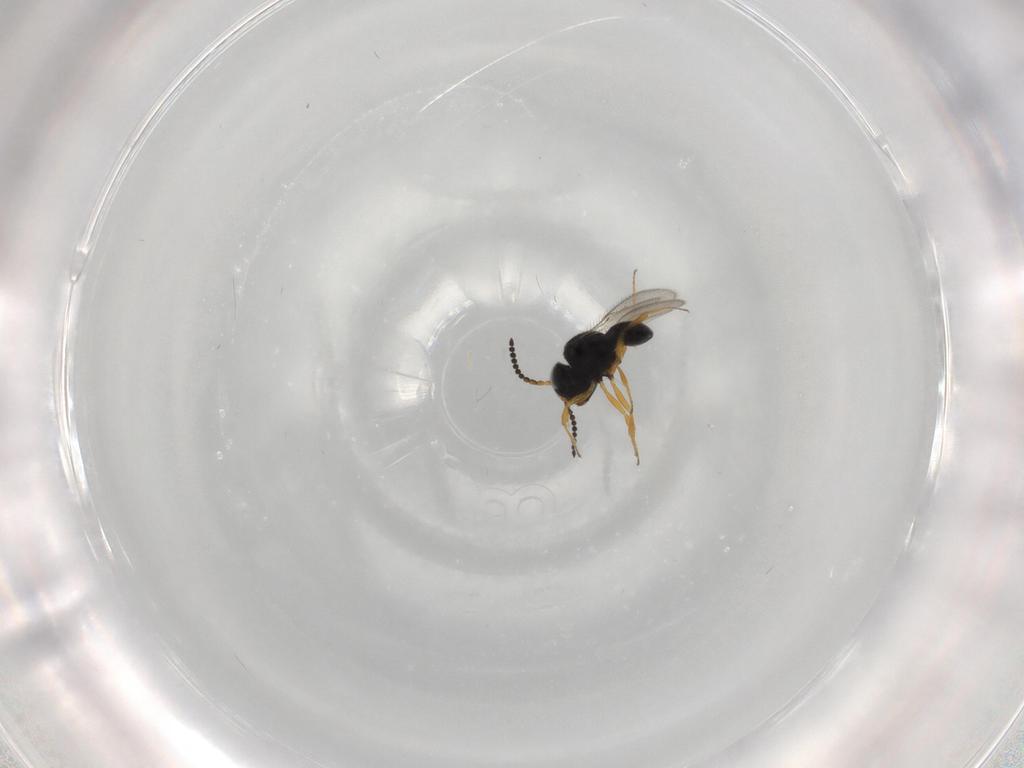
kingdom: Animalia
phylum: Arthropoda
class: Insecta
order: Hymenoptera
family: Scelionidae
